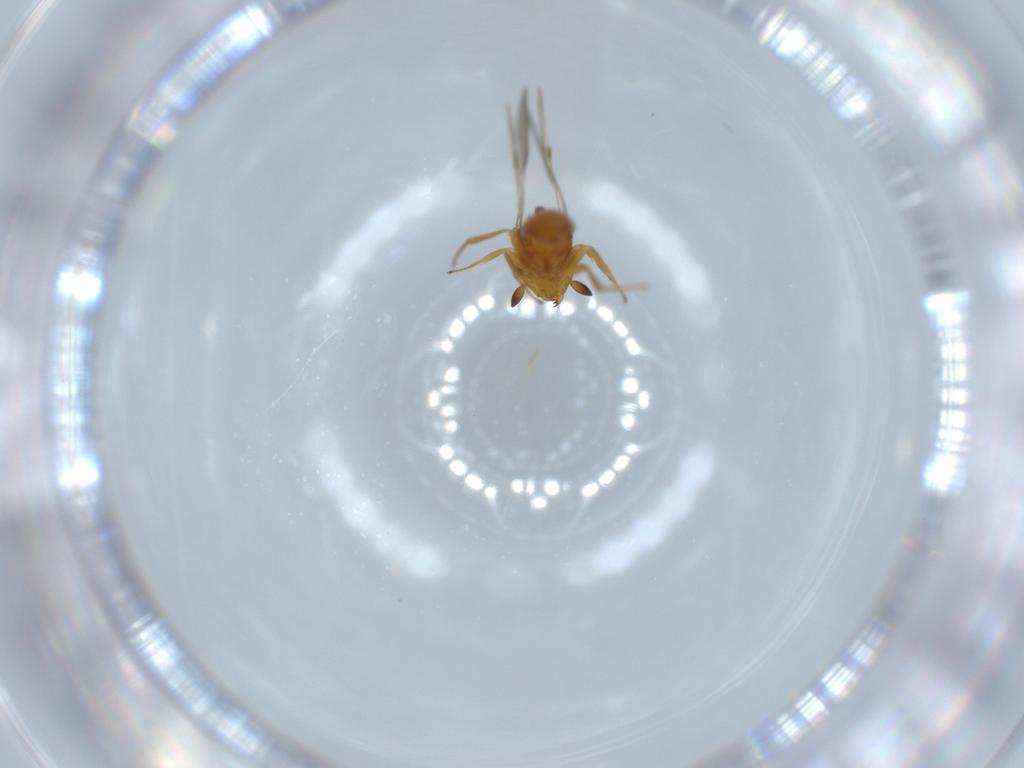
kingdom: Animalia
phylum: Arthropoda
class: Insecta
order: Hymenoptera
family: Scelionidae
